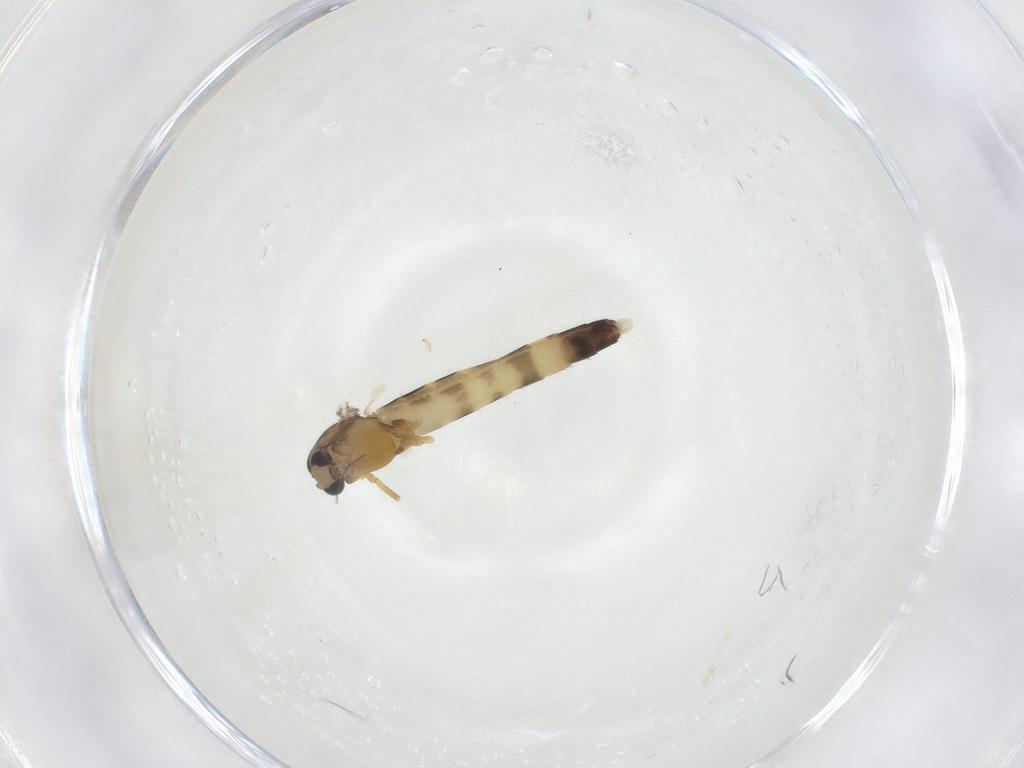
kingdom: Animalia
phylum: Arthropoda
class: Insecta
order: Diptera
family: Chironomidae
